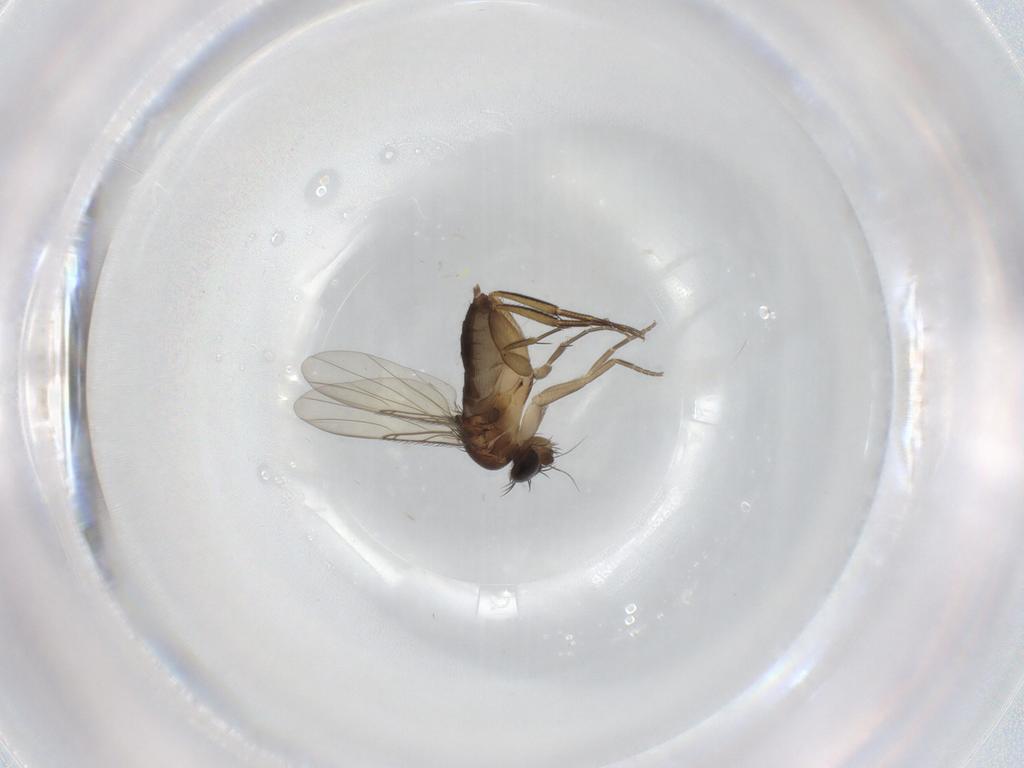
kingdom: Animalia
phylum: Arthropoda
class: Insecta
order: Diptera
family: Phoridae
